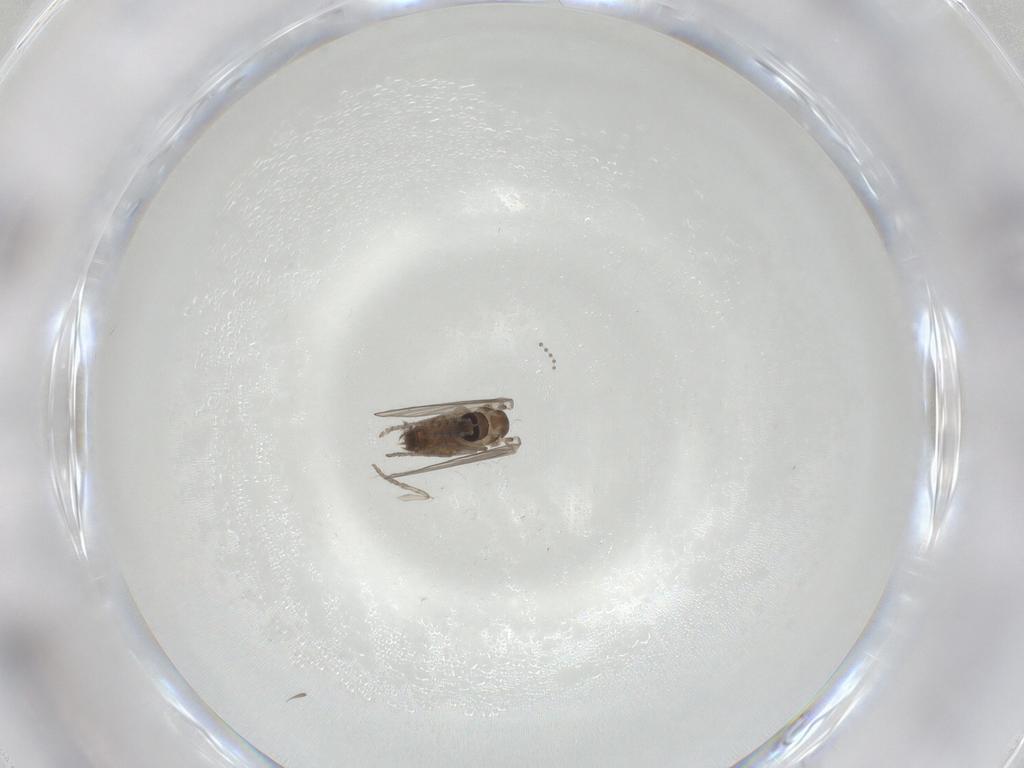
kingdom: Animalia
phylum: Arthropoda
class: Insecta
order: Diptera
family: Psychodidae
